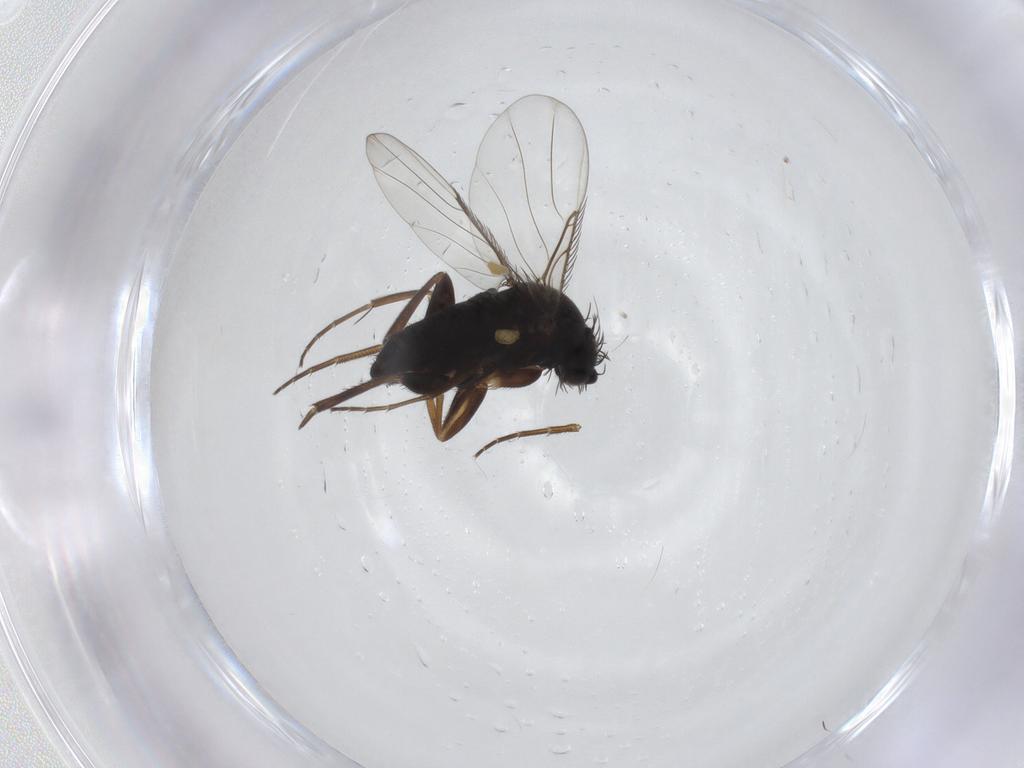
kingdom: Animalia
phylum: Arthropoda
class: Insecta
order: Diptera
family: Phoridae
